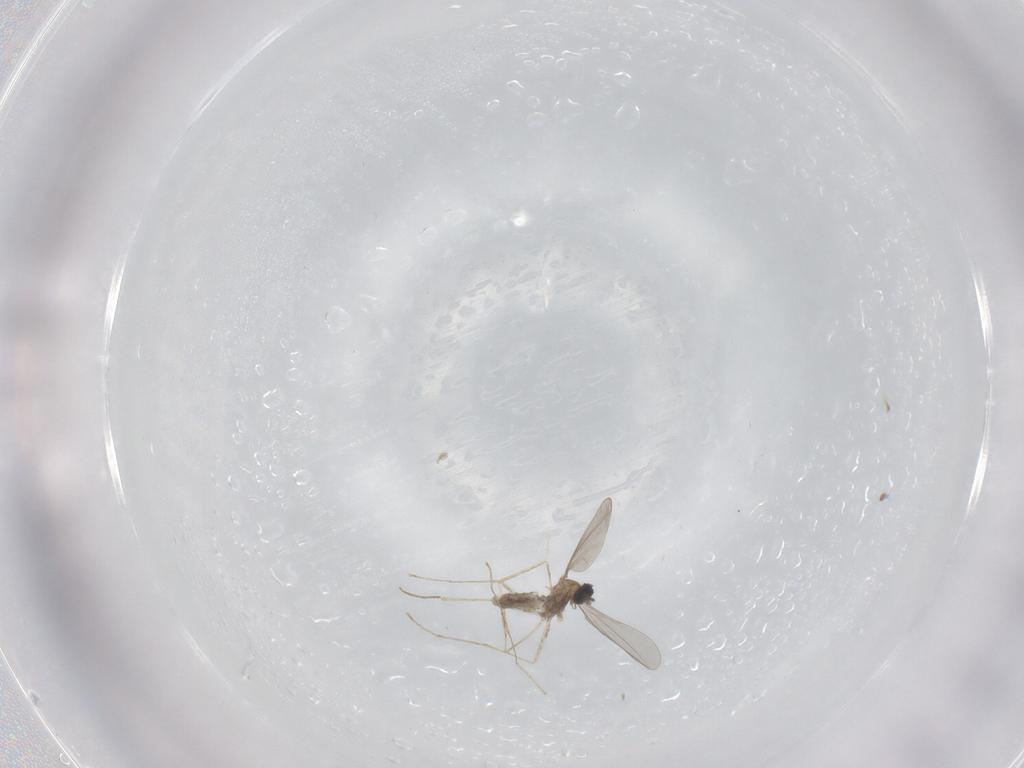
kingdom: Animalia
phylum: Arthropoda
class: Insecta
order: Diptera
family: Cecidomyiidae
